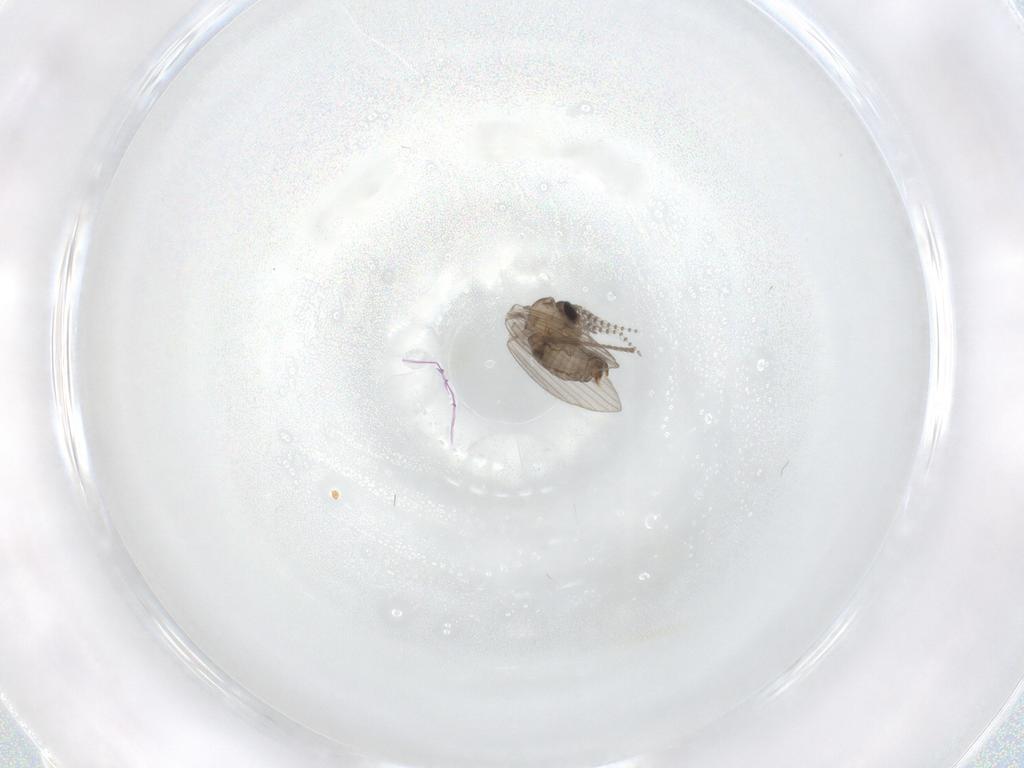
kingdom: Animalia
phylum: Arthropoda
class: Insecta
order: Diptera
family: Psychodidae
